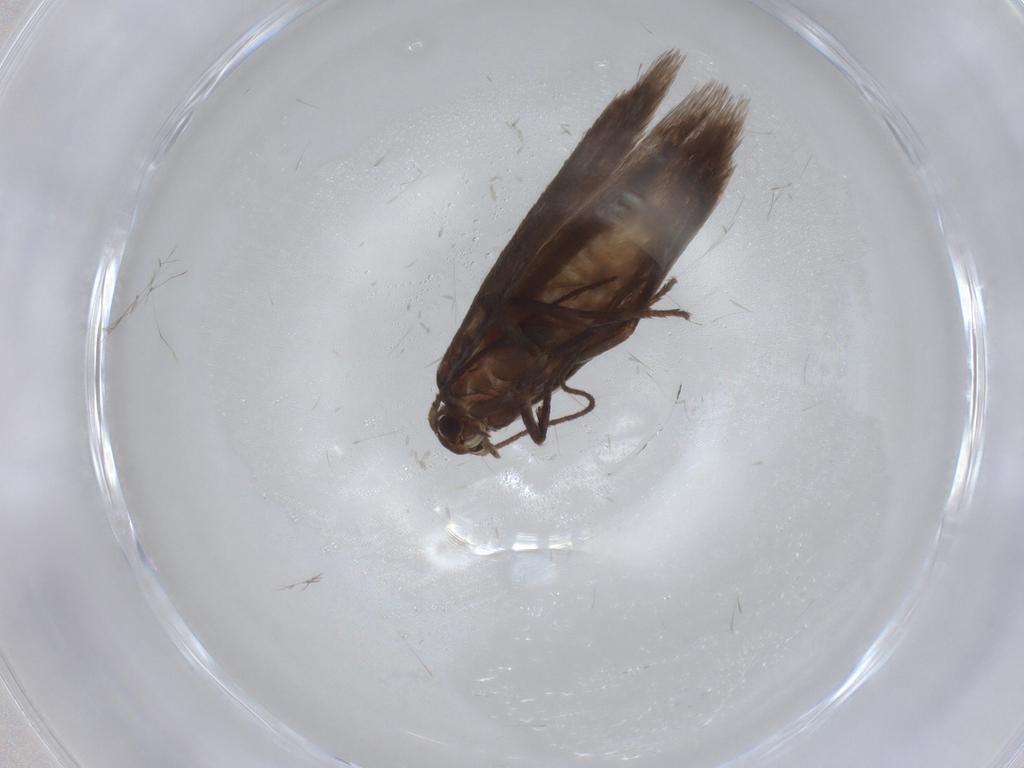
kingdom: Animalia
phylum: Arthropoda
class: Insecta
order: Lepidoptera
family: Limacodidae
